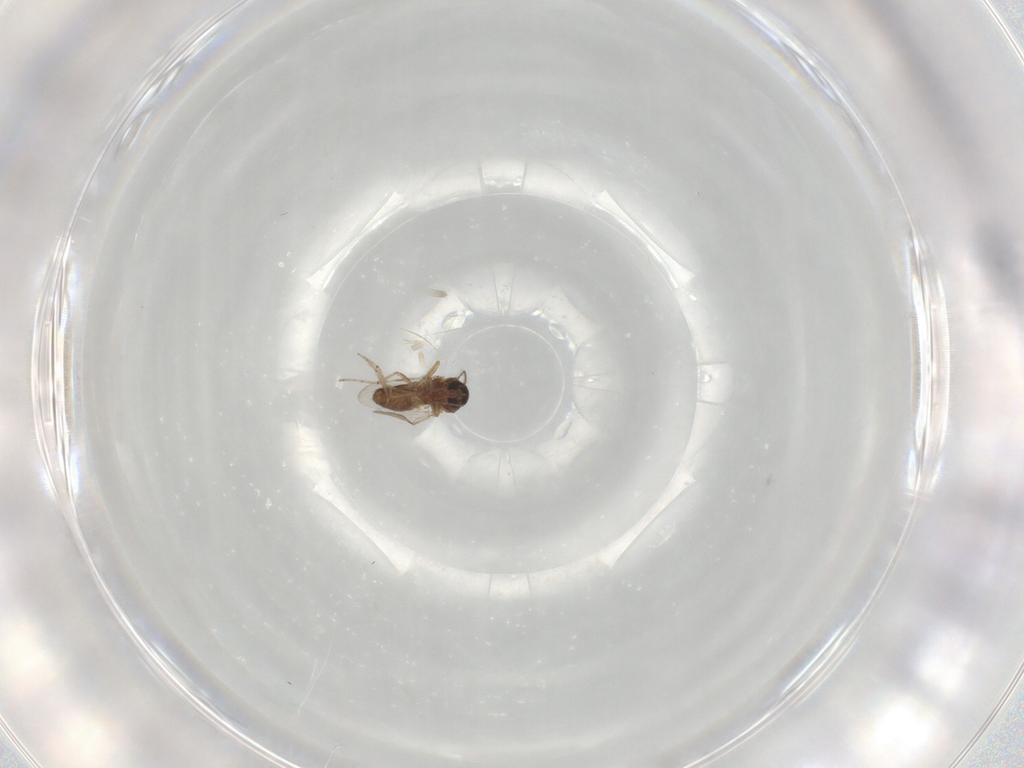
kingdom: Animalia
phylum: Arthropoda
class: Insecta
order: Diptera
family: Ceratopogonidae
